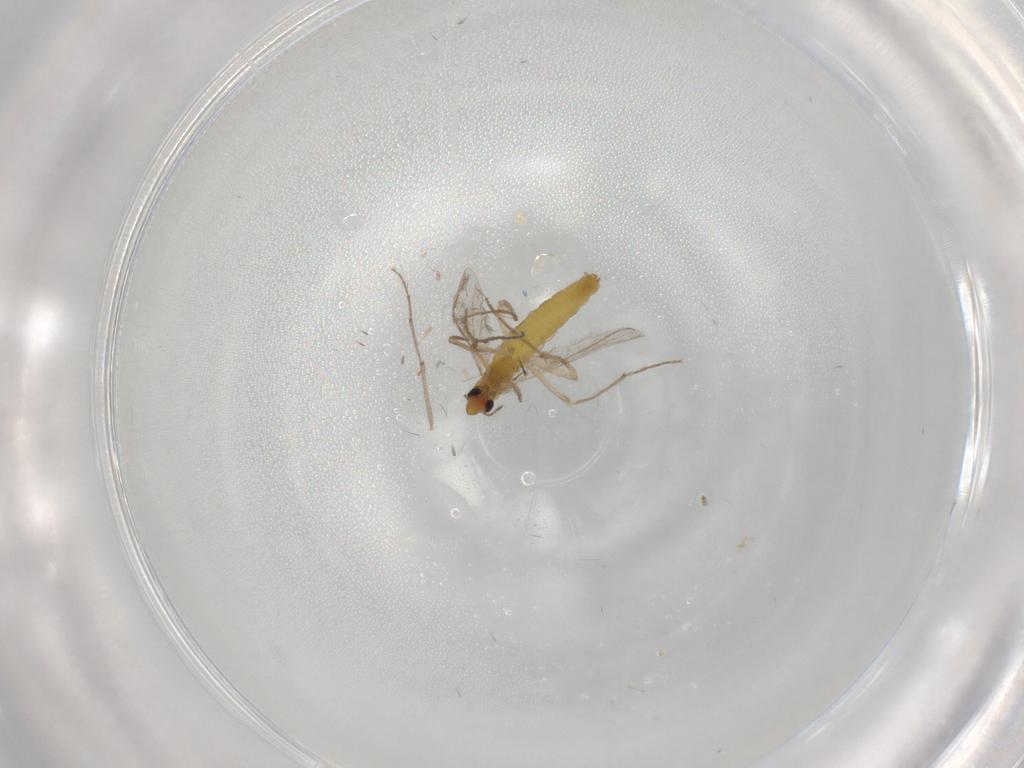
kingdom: Animalia
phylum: Arthropoda
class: Insecta
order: Diptera
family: Chironomidae
